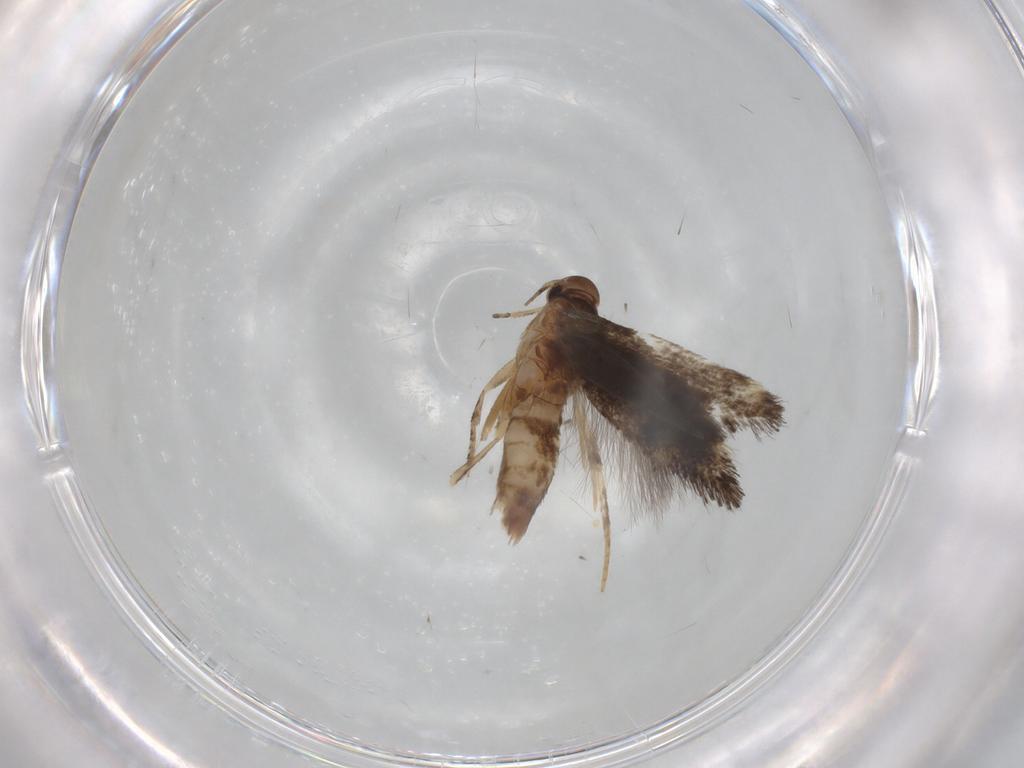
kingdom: Animalia
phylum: Arthropoda
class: Insecta
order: Lepidoptera
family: Elachistidae
